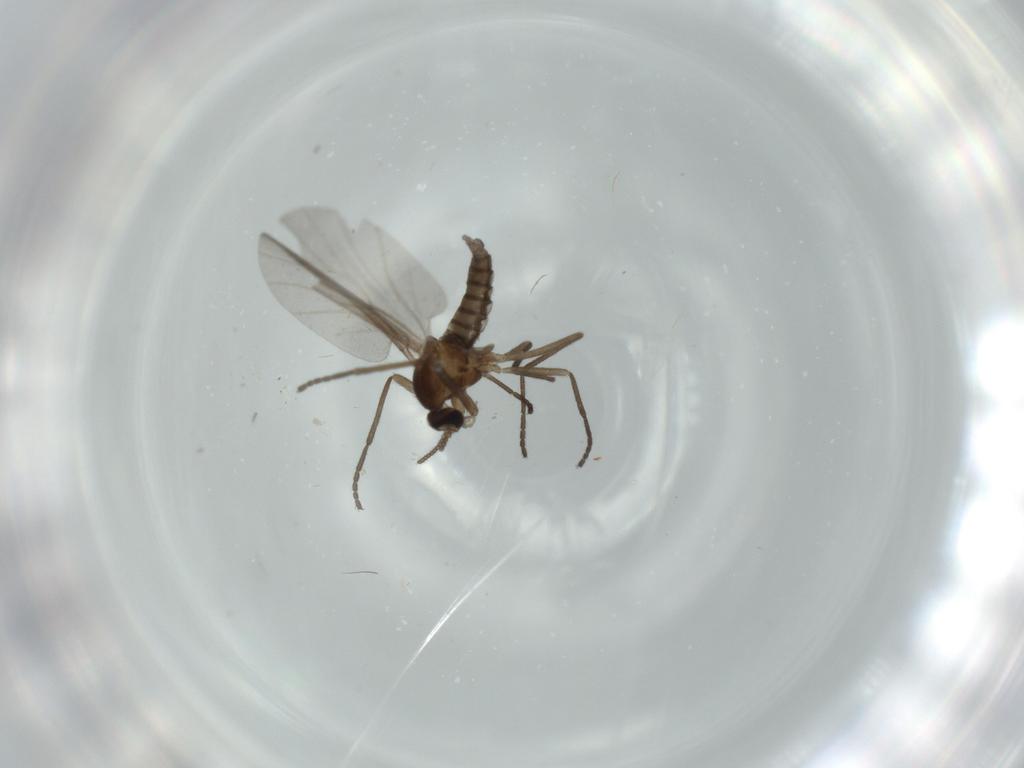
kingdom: Animalia
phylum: Arthropoda
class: Insecta
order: Diptera
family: Cecidomyiidae
